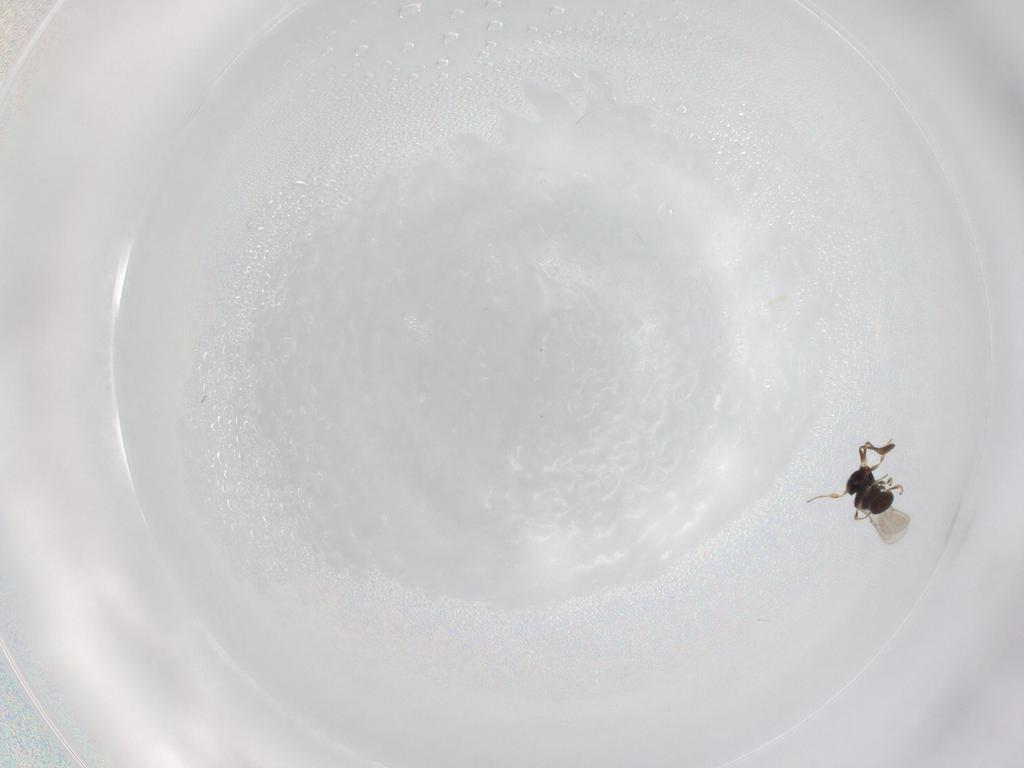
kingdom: Animalia
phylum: Arthropoda
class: Insecta
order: Hymenoptera
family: Scelionidae
